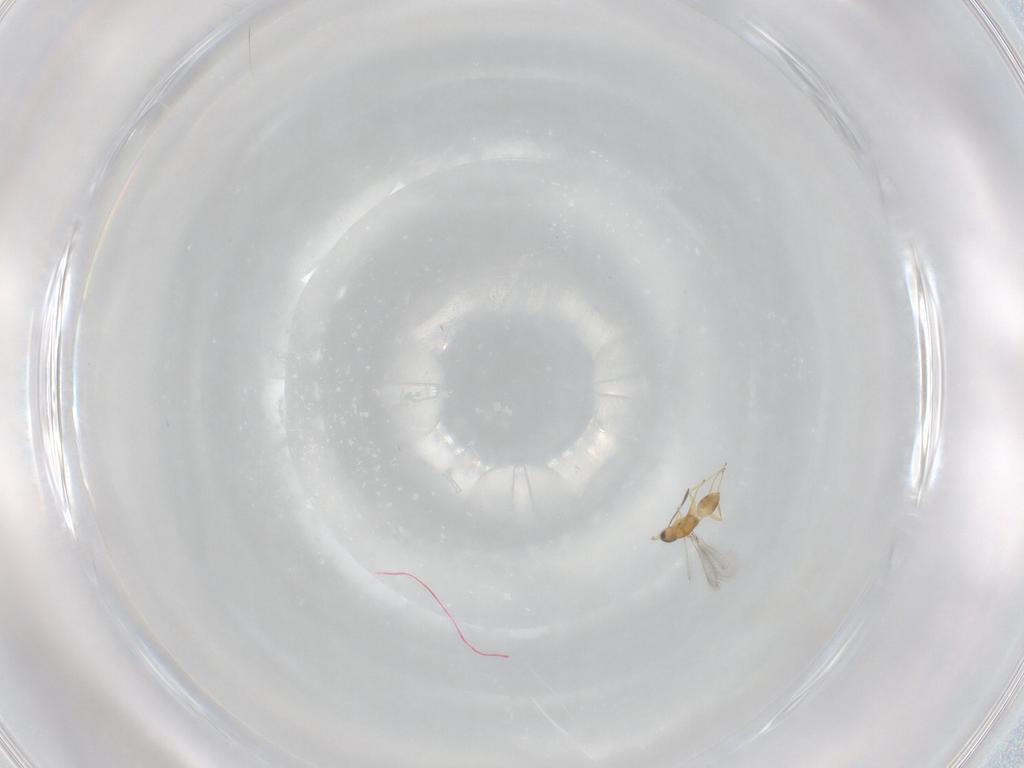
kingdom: Animalia
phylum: Arthropoda
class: Insecta
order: Hymenoptera
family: Mymaridae
